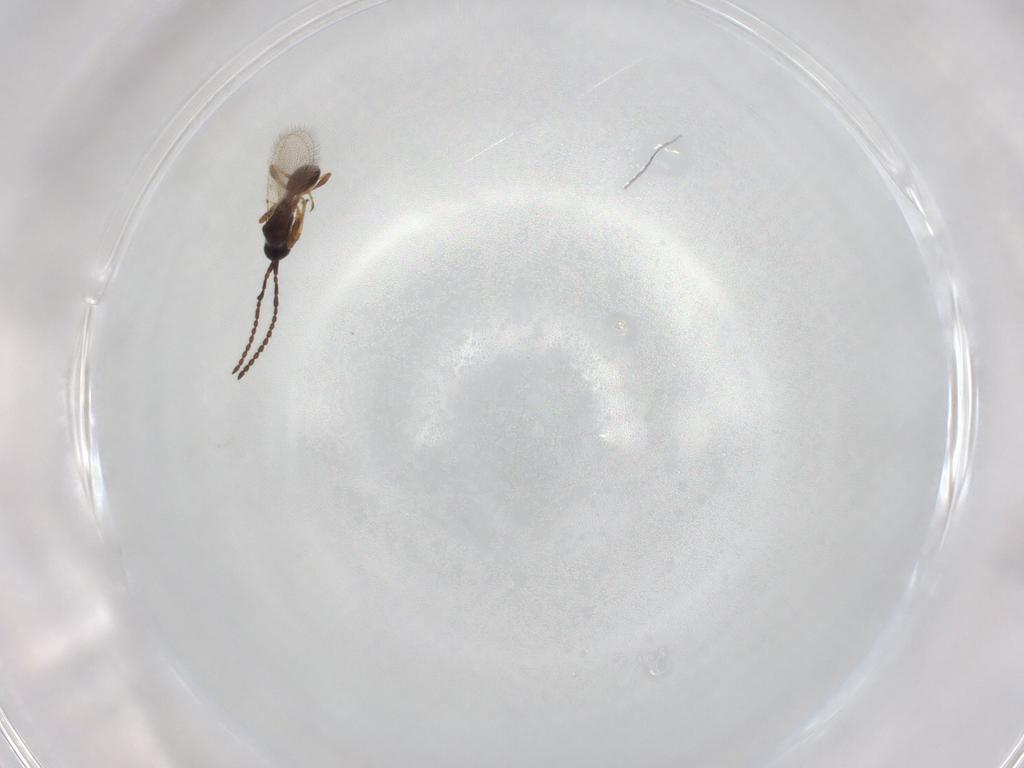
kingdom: Animalia
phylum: Arthropoda
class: Insecta
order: Hymenoptera
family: Diapriidae
